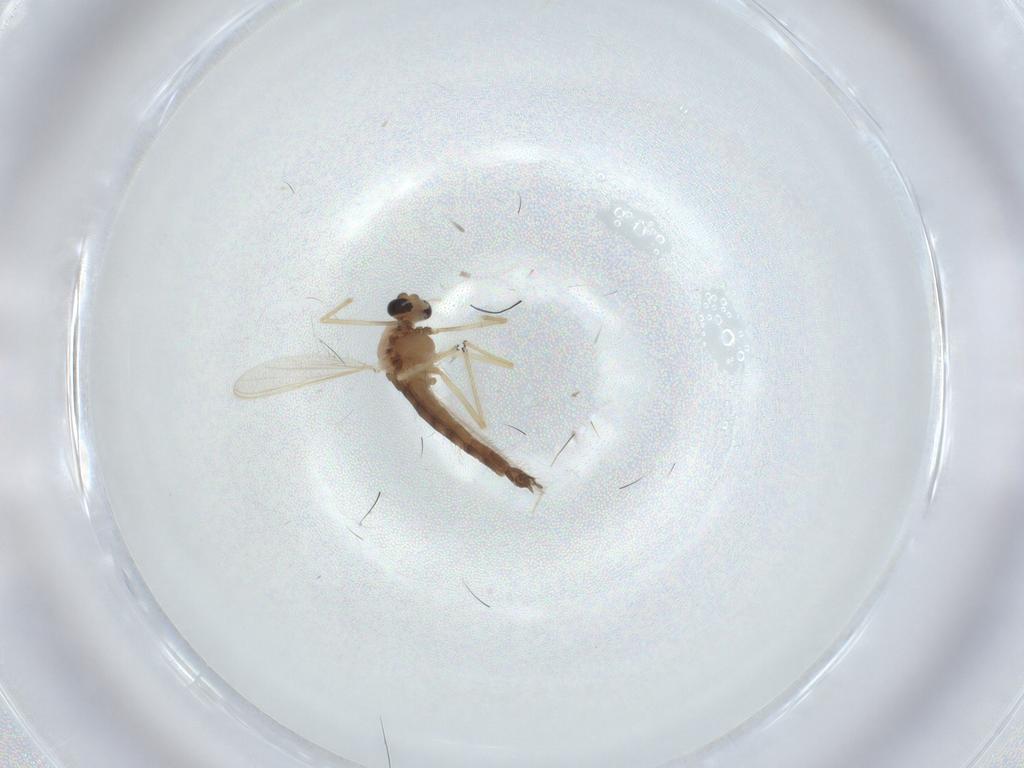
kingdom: Animalia
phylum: Arthropoda
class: Insecta
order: Diptera
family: Chironomidae
